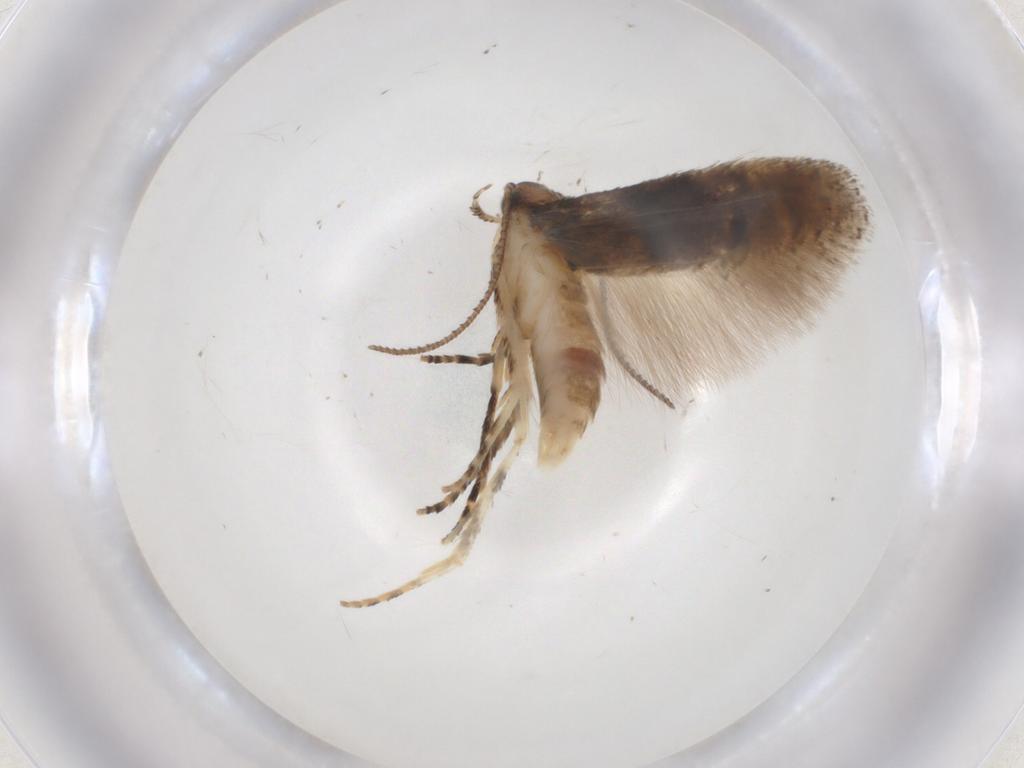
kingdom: Animalia
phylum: Arthropoda
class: Insecta
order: Lepidoptera
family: Gelechiidae
